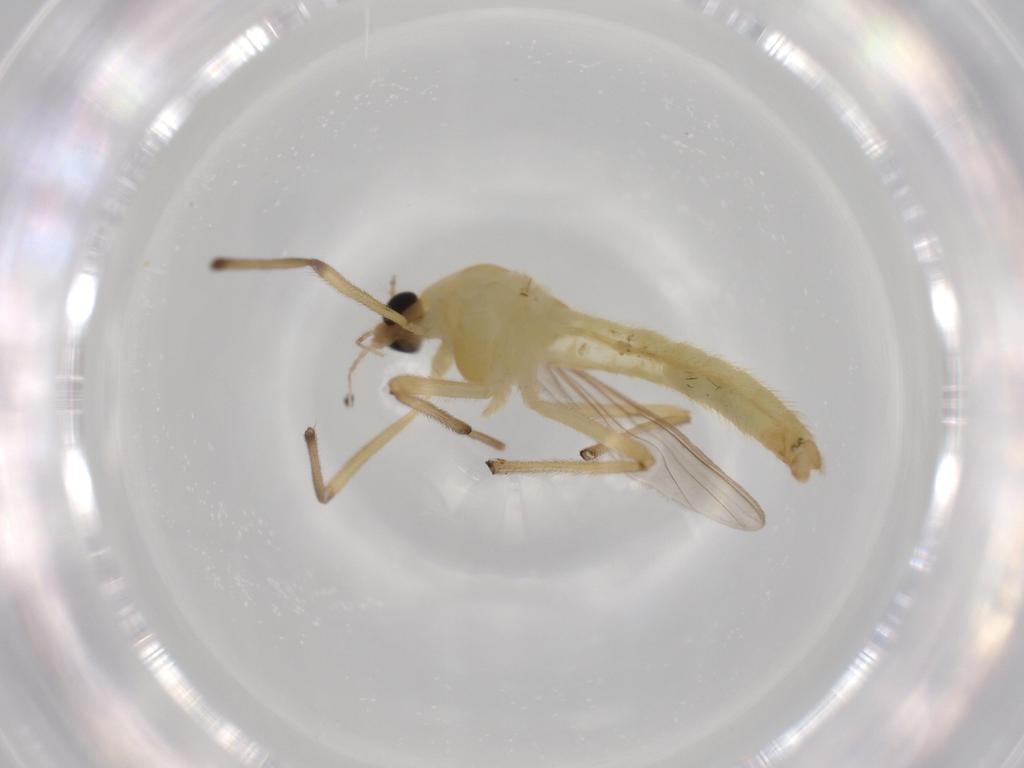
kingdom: Animalia
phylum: Arthropoda
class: Insecta
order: Diptera
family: Cecidomyiidae
